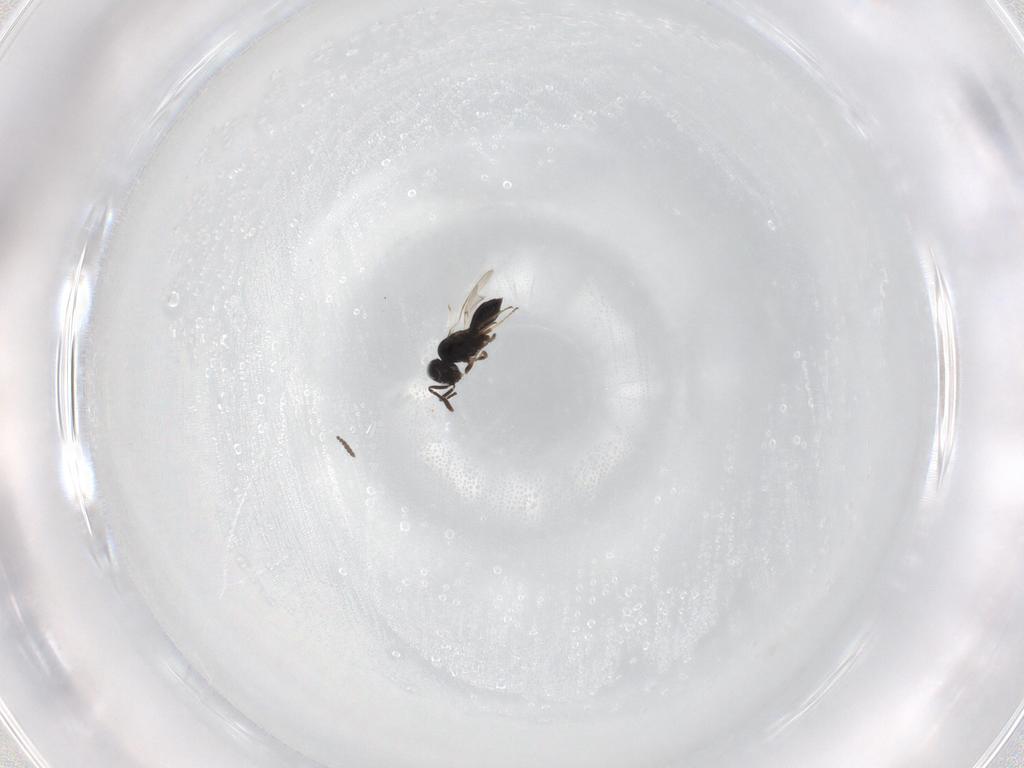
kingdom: Animalia
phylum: Arthropoda
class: Insecta
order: Hymenoptera
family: Scelionidae
